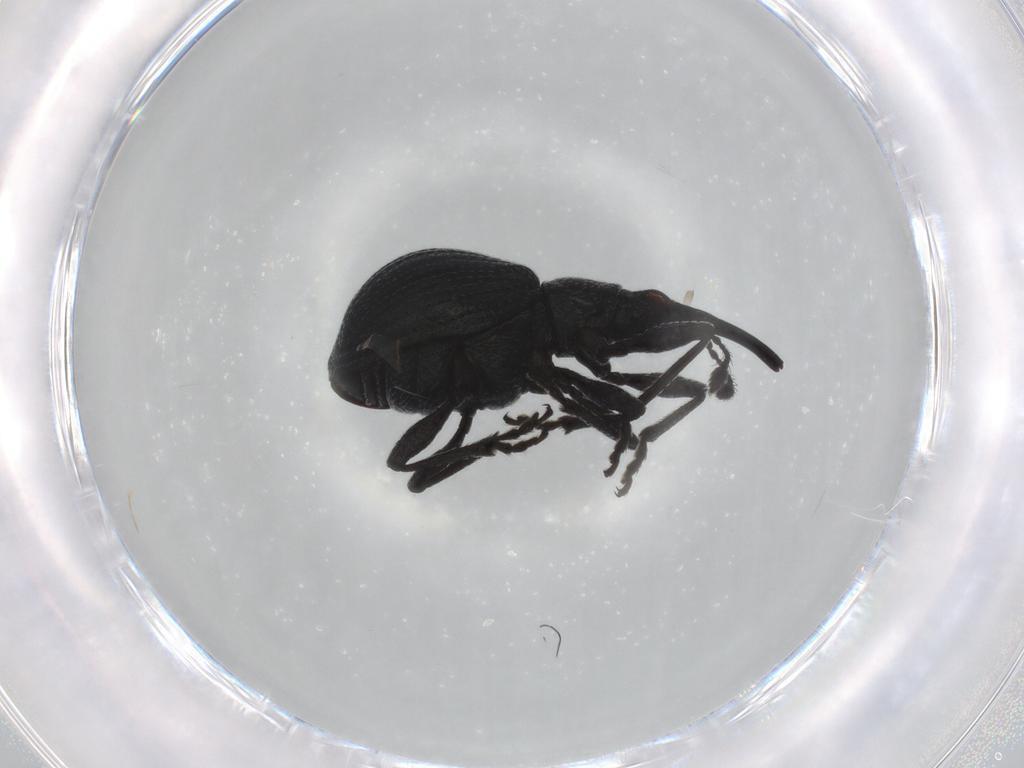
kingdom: Animalia
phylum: Arthropoda
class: Insecta
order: Coleoptera
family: Brentidae
